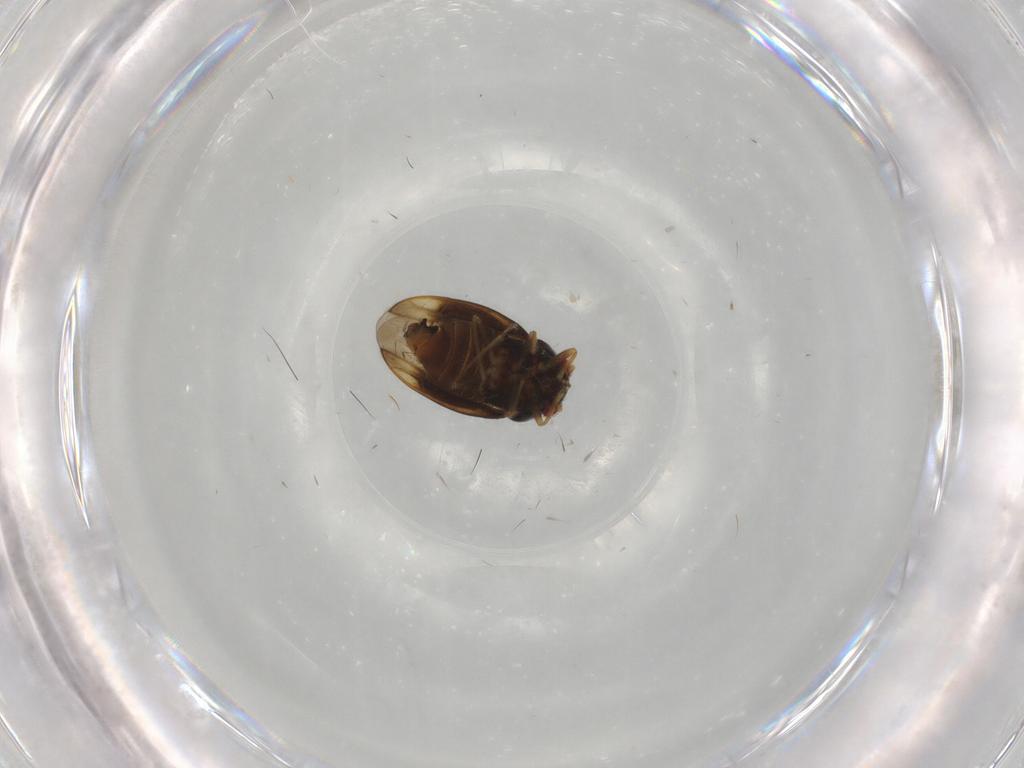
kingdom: Animalia
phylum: Arthropoda
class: Insecta
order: Hemiptera
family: Schizopteridae
